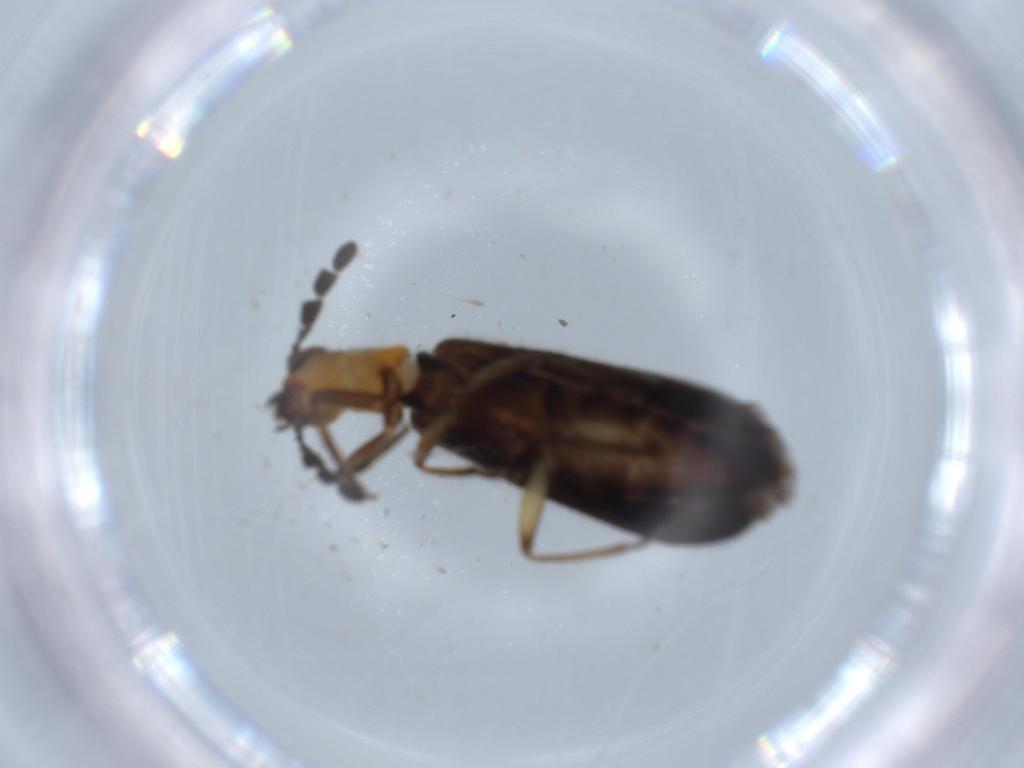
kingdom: Animalia
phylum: Arthropoda
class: Insecta
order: Coleoptera
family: Cleridae
